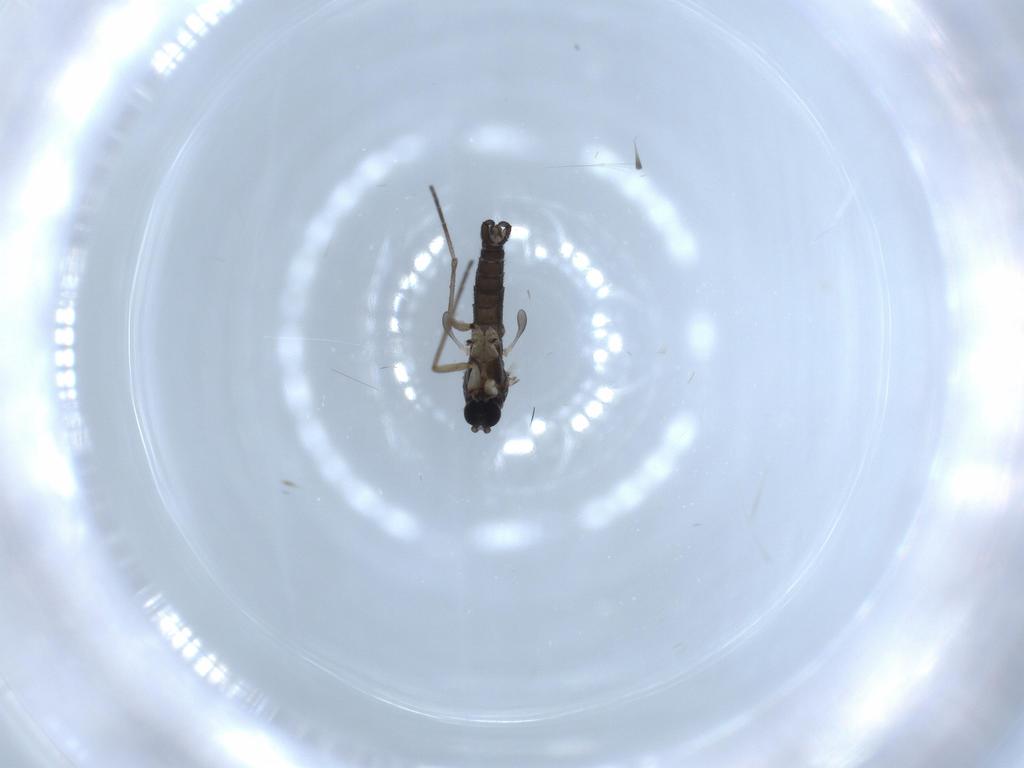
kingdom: Animalia
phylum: Arthropoda
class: Insecta
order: Diptera
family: Sciaridae
